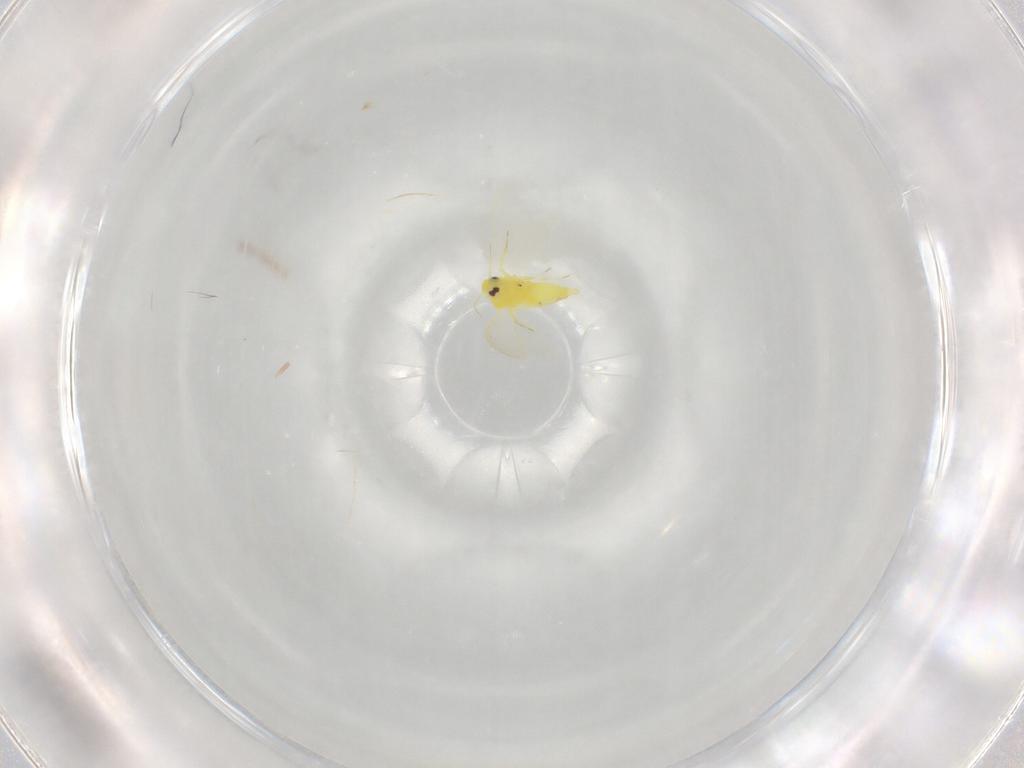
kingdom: Animalia
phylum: Arthropoda
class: Insecta
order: Hemiptera
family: Aleyrodidae
